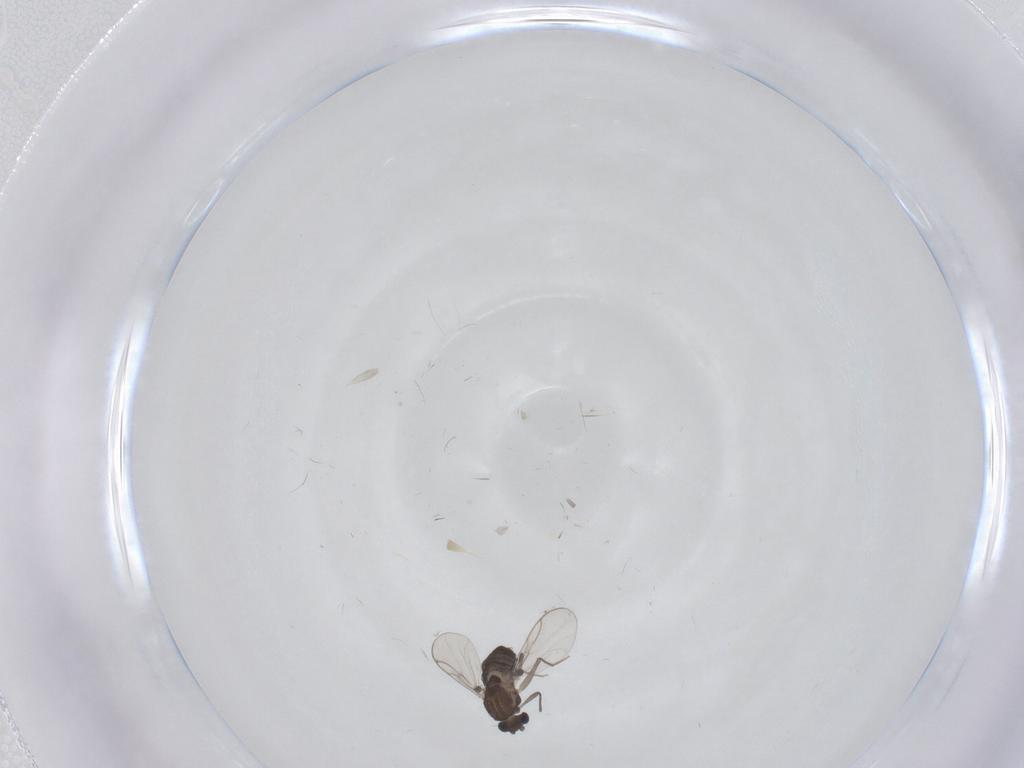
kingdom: Animalia
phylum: Arthropoda
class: Insecta
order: Diptera
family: Chironomidae
